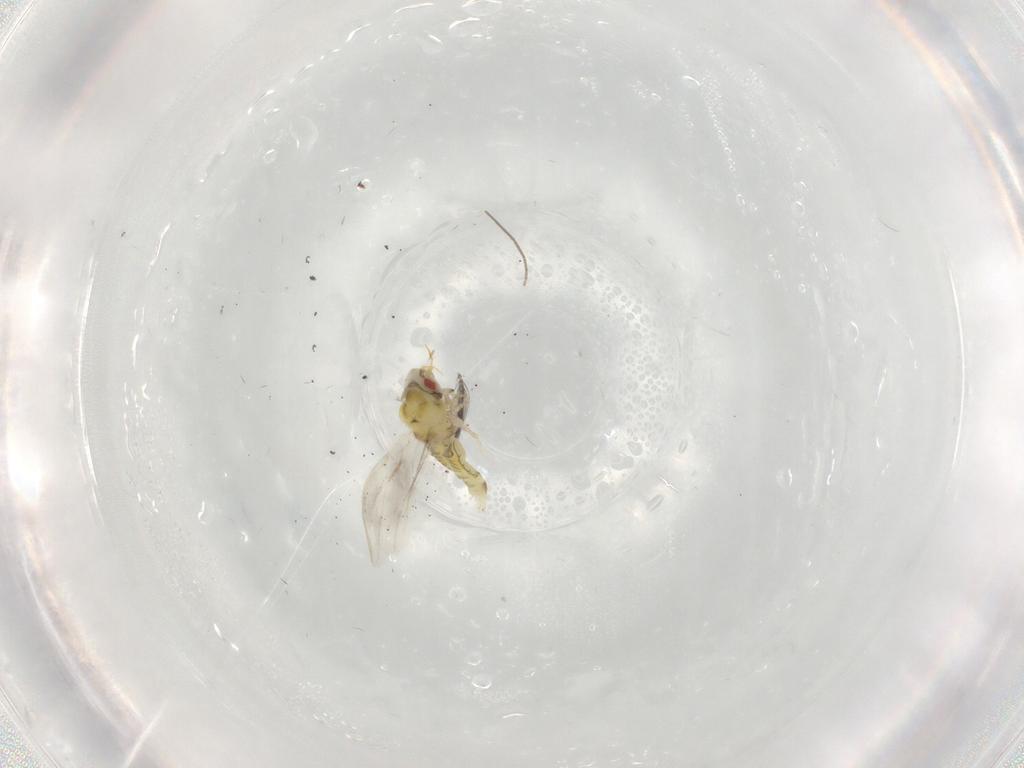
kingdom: Animalia
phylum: Arthropoda
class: Insecta
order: Hemiptera
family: Aleyrodidae
